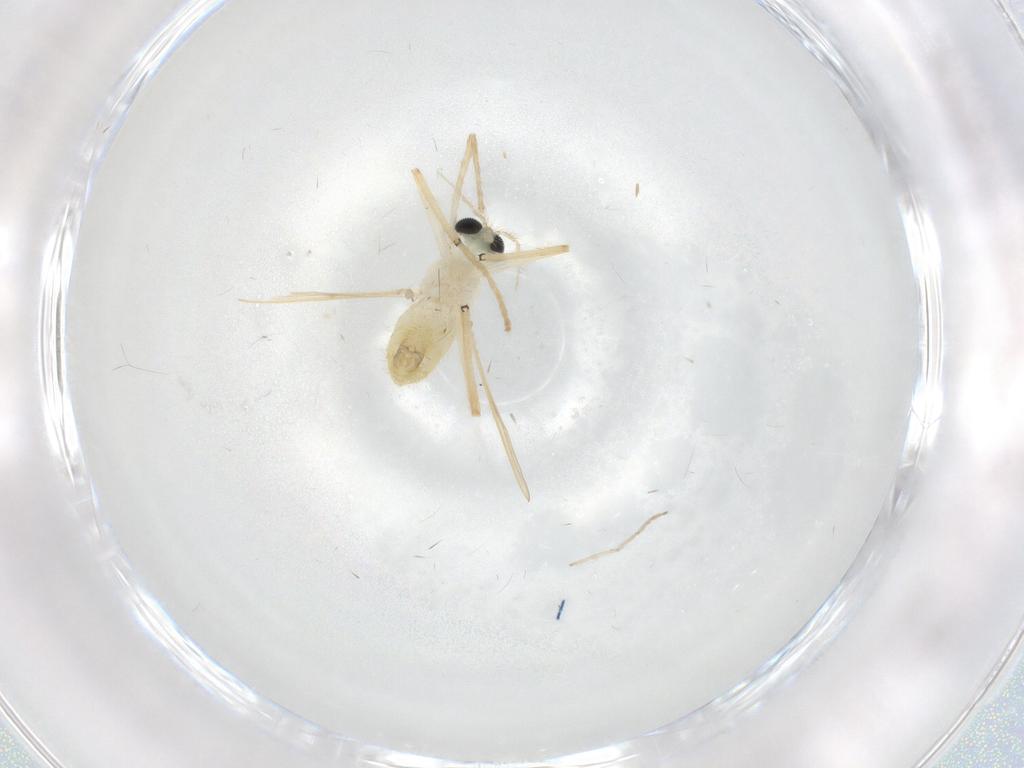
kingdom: Animalia
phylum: Arthropoda
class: Insecta
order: Diptera
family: Chironomidae
